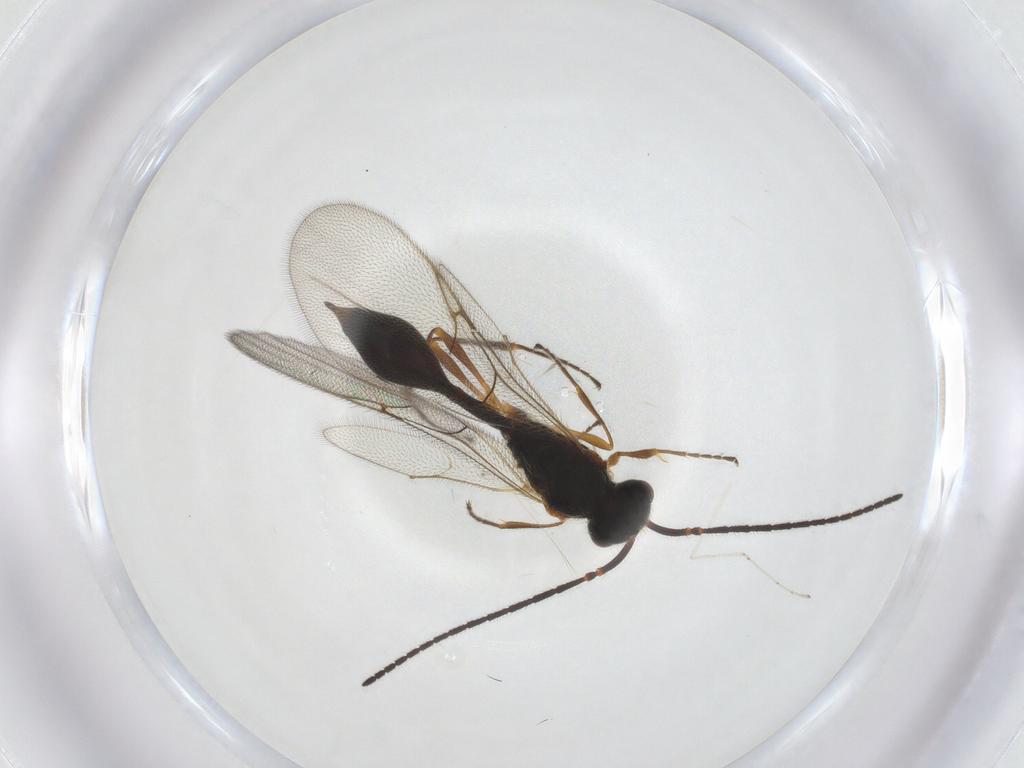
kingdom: Animalia
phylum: Arthropoda
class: Insecta
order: Hymenoptera
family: Diapriidae
